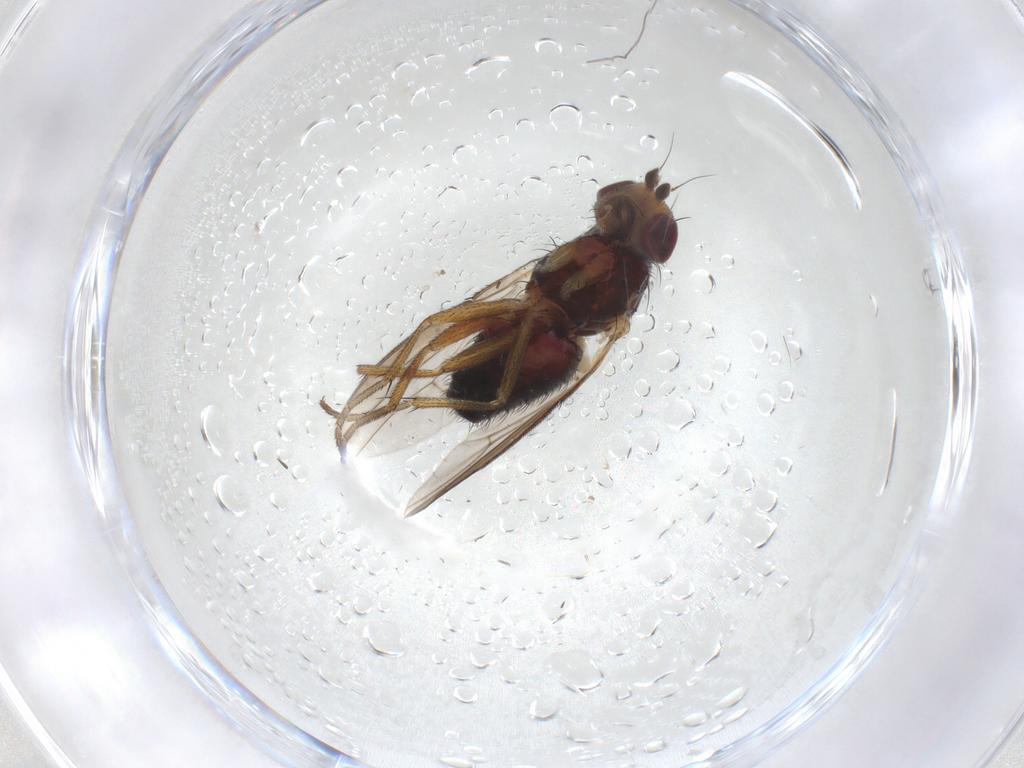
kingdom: Animalia
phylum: Arthropoda
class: Insecta
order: Diptera
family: Heleomyzidae
